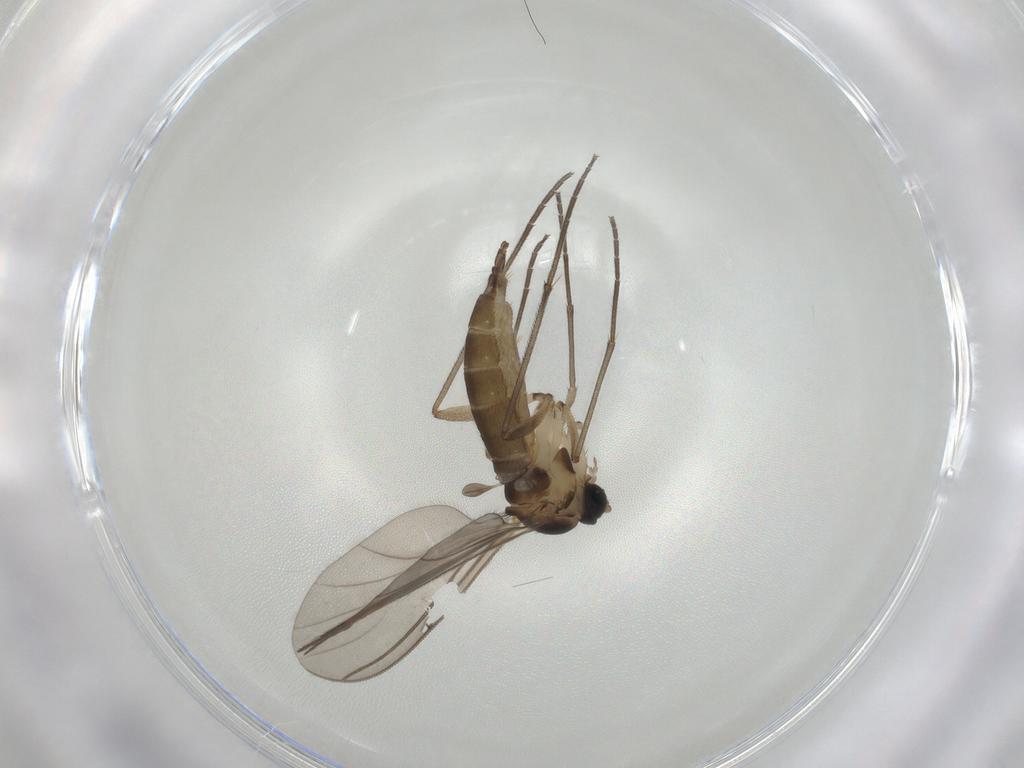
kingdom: Animalia
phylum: Arthropoda
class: Insecta
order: Diptera
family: Sciaridae
